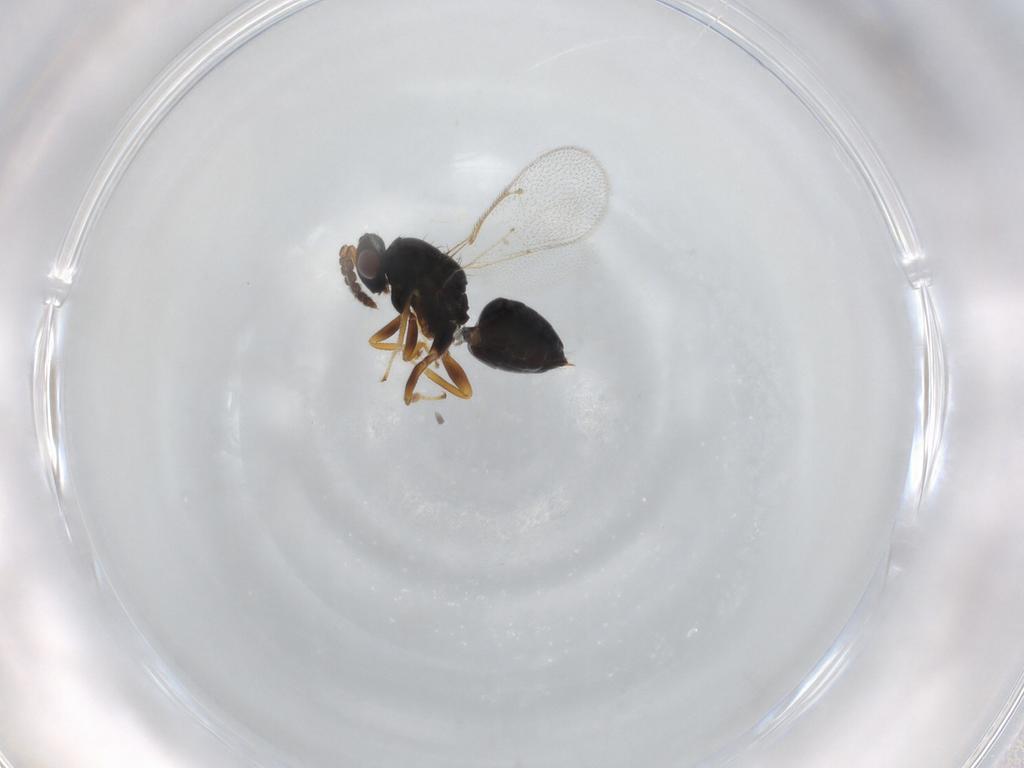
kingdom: Animalia
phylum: Arthropoda
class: Insecta
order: Hymenoptera
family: Eulophidae
